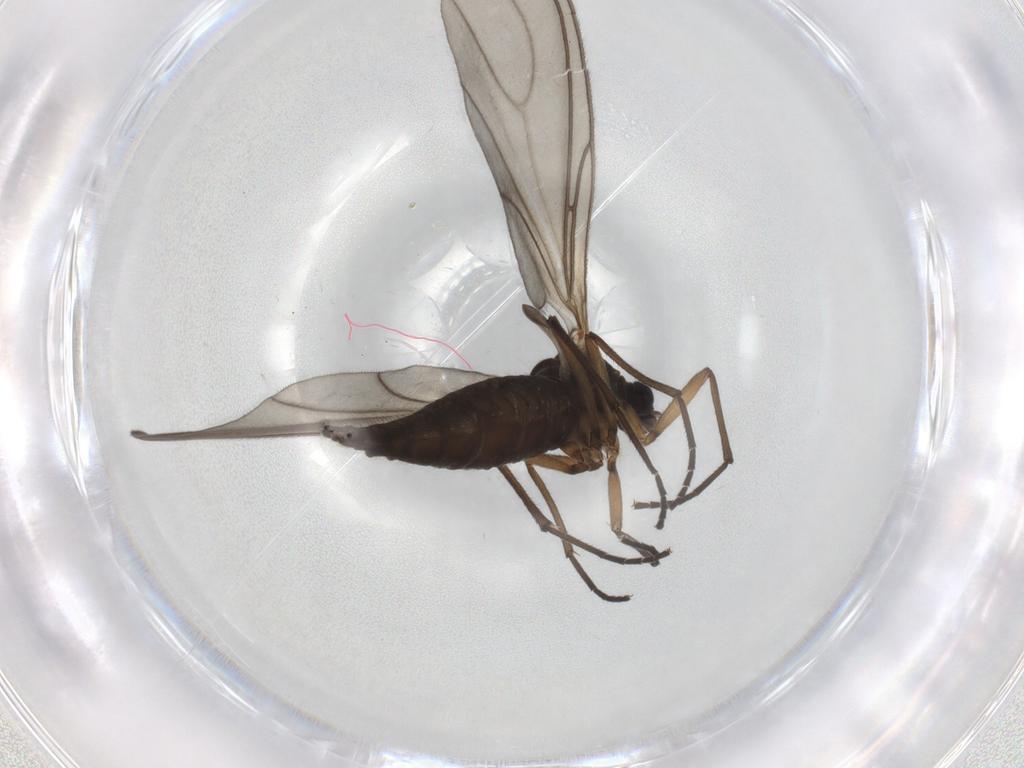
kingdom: Animalia
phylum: Arthropoda
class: Insecta
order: Diptera
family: Sciaridae
